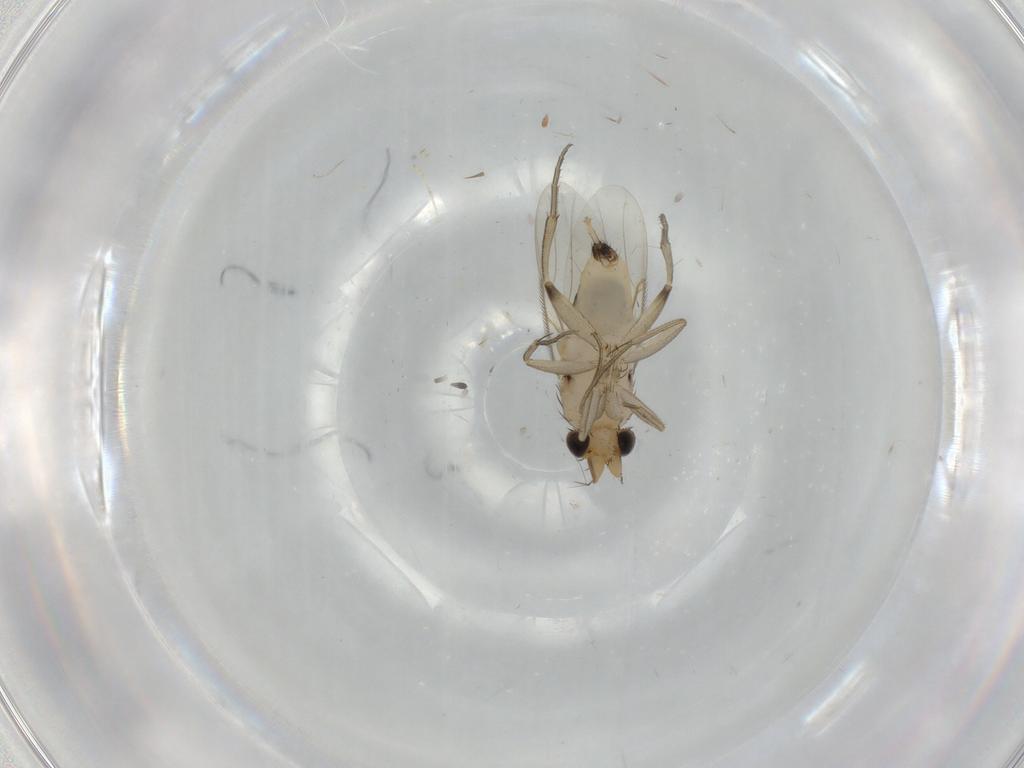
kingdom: Animalia
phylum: Arthropoda
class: Insecta
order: Diptera
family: Phoridae
